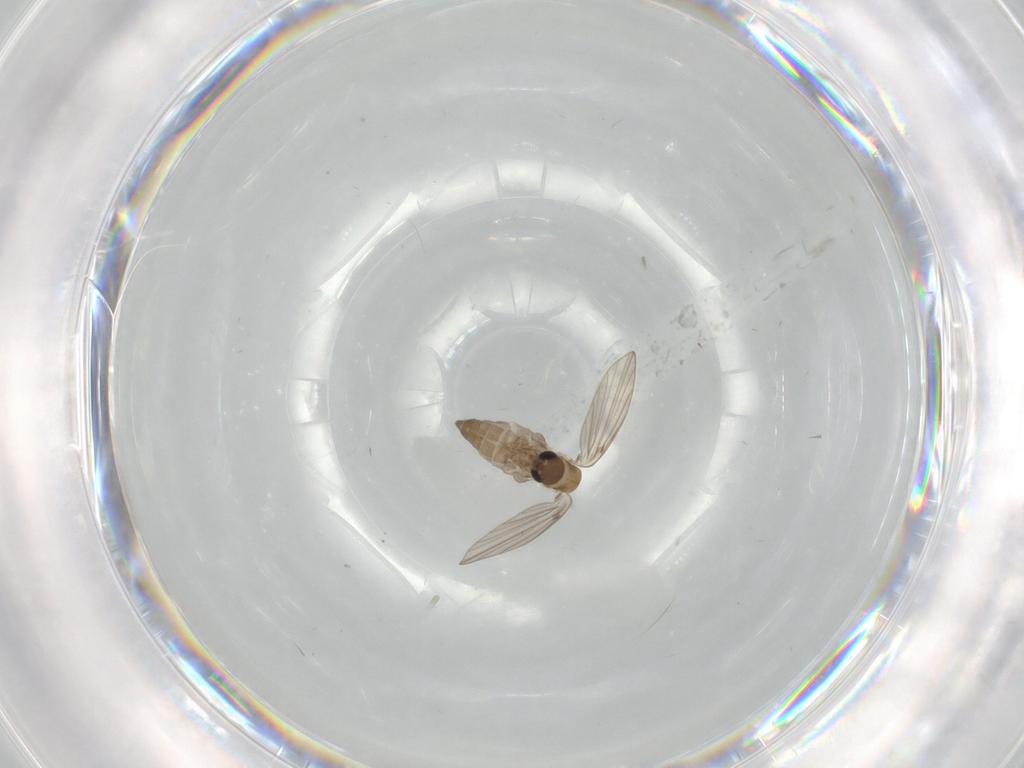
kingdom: Animalia
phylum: Arthropoda
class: Insecta
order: Diptera
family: Psychodidae
